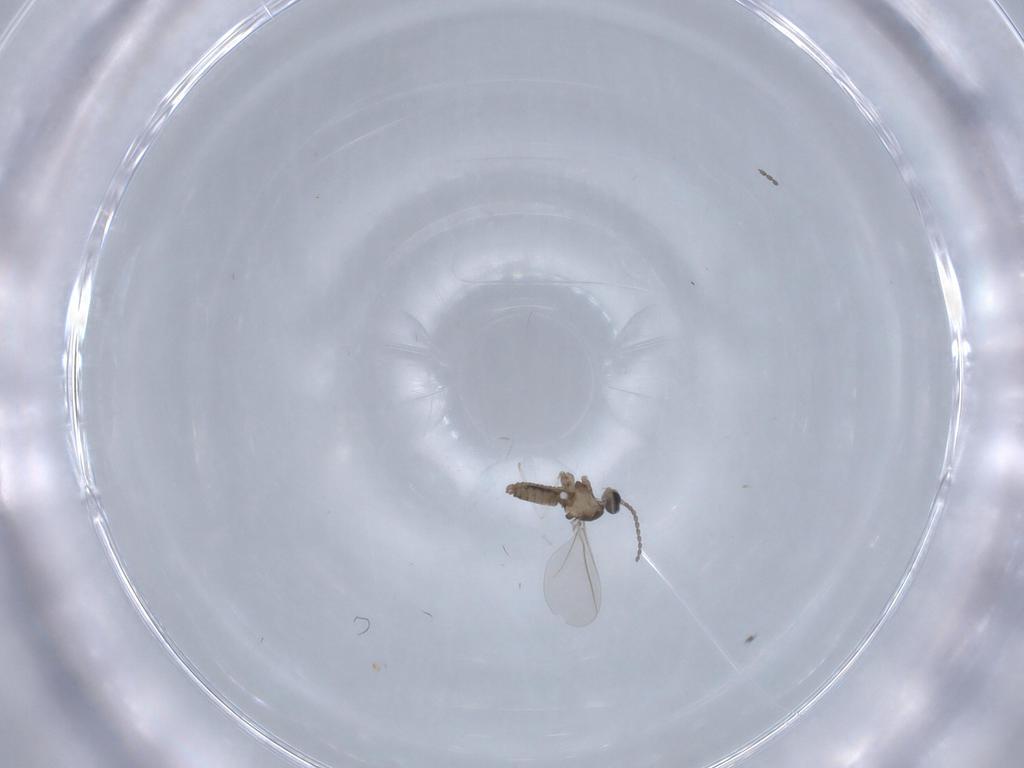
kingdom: Animalia
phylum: Arthropoda
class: Insecta
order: Diptera
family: Cecidomyiidae
